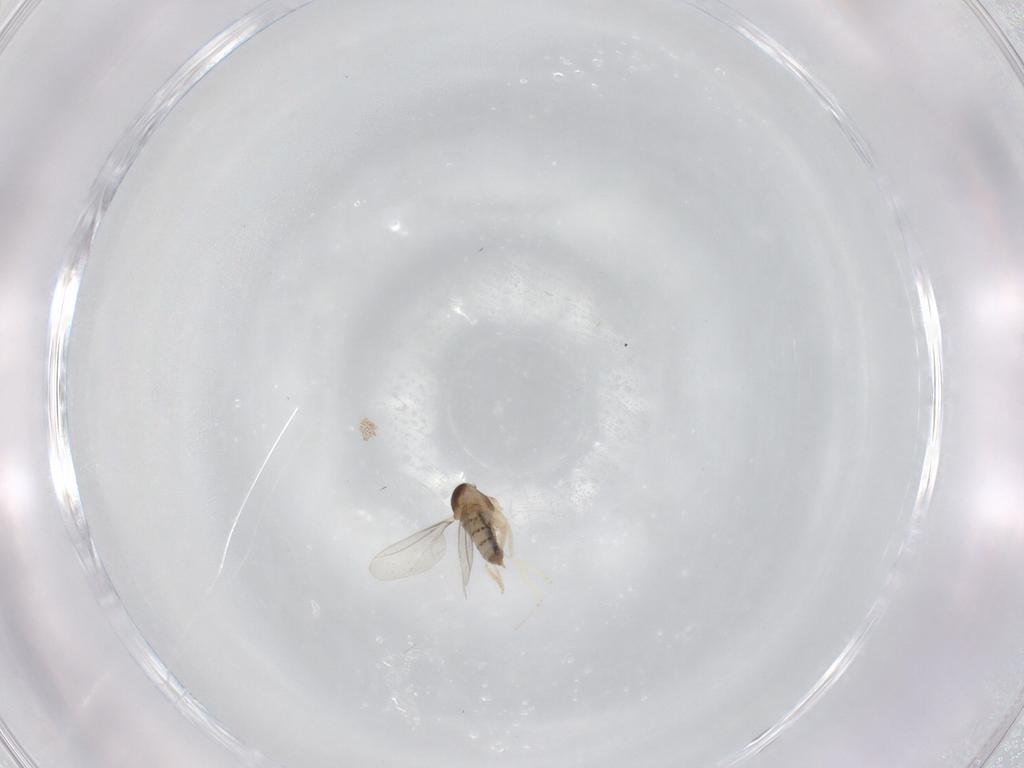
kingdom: Animalia
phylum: Arthropoda
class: Insecta
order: Diptera
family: Cecidomyiidae
